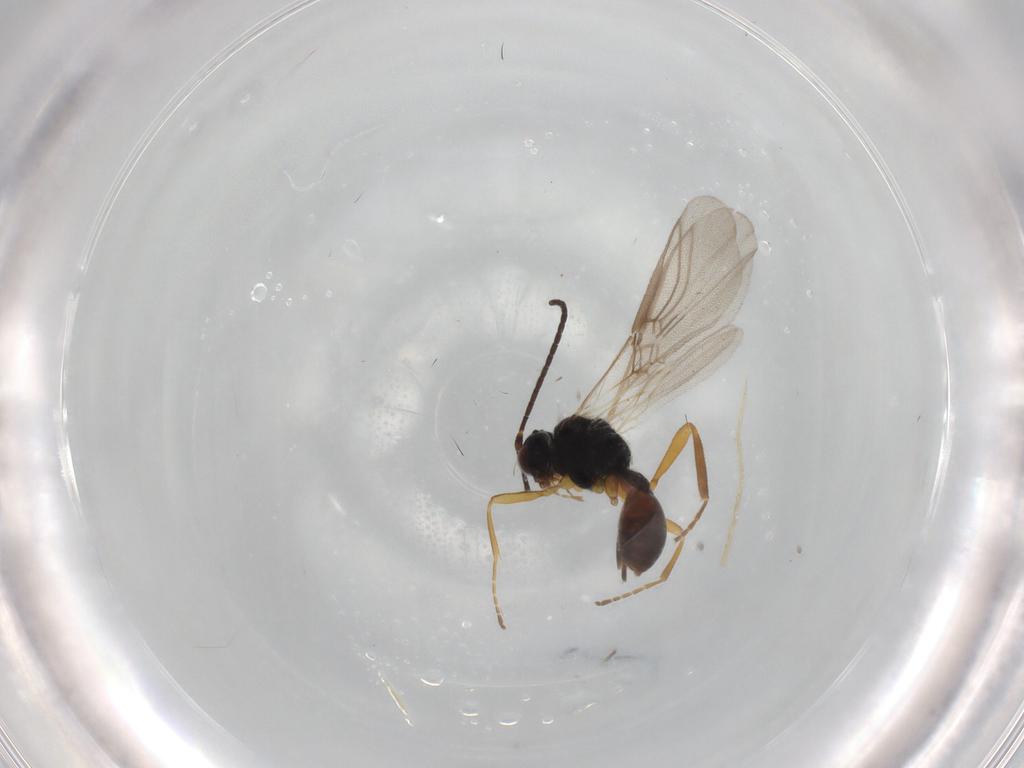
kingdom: Animalia
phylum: Arthropoda
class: Insecta
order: Hymenoptera
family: Braconidae
